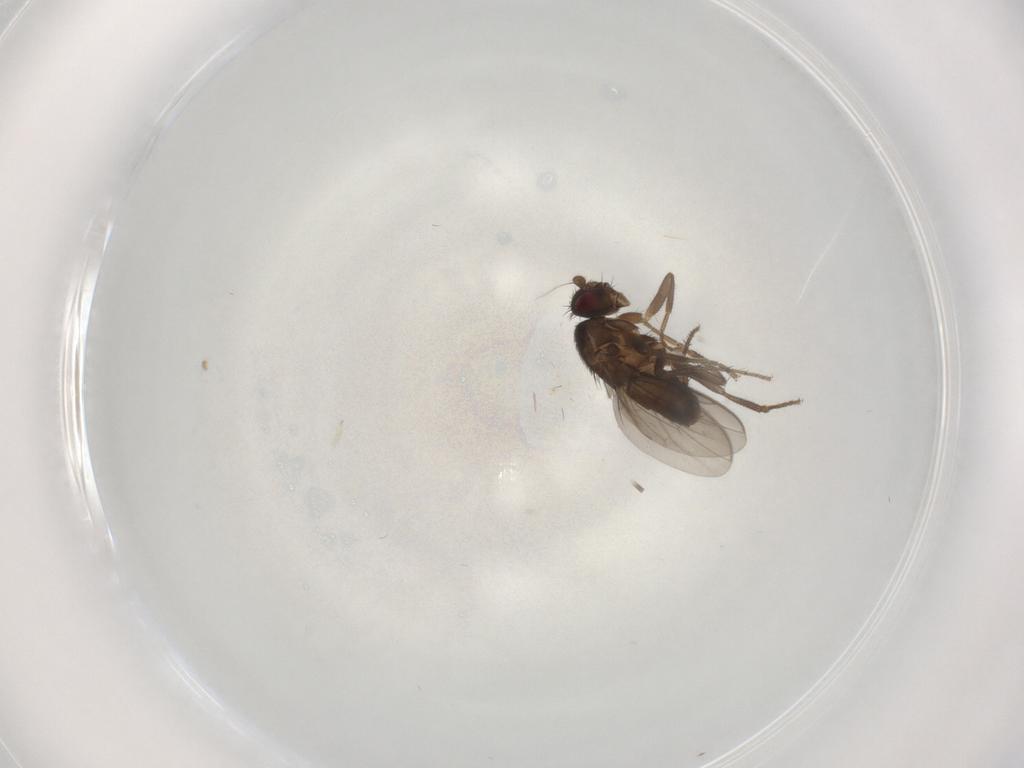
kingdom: Animalia
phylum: Arthropoda
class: Insecta
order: Diptera
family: Sphaeroceridae
